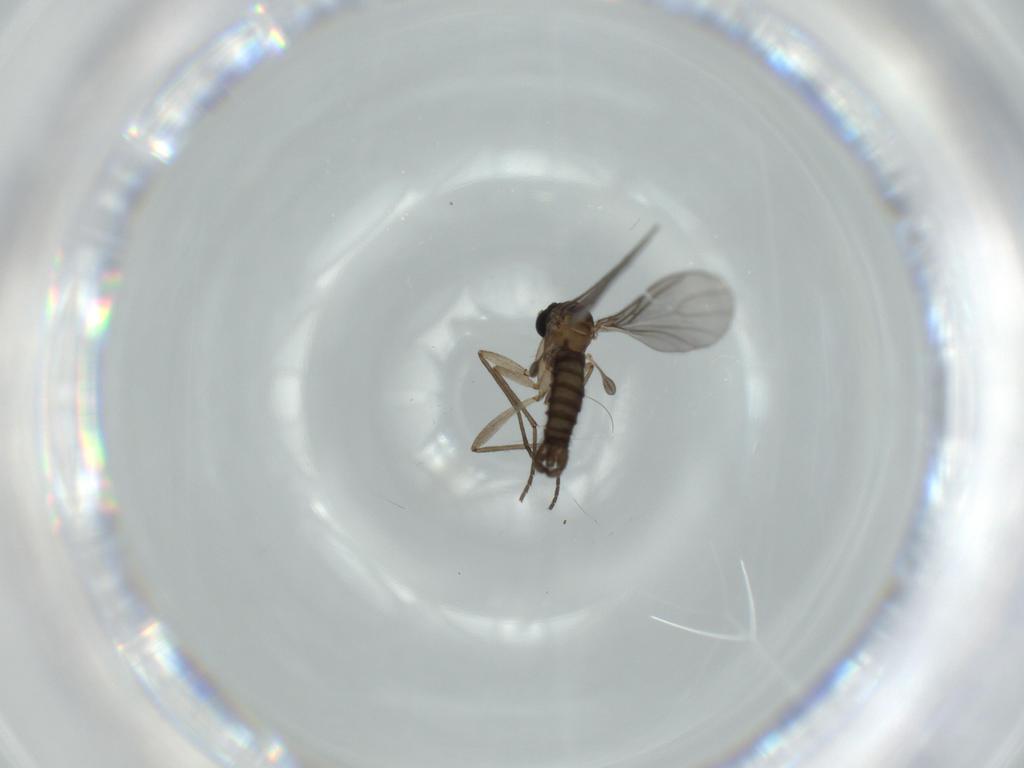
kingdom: Animalia
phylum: Arthropoda
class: Insecta
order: Diptera
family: Sciaridae
